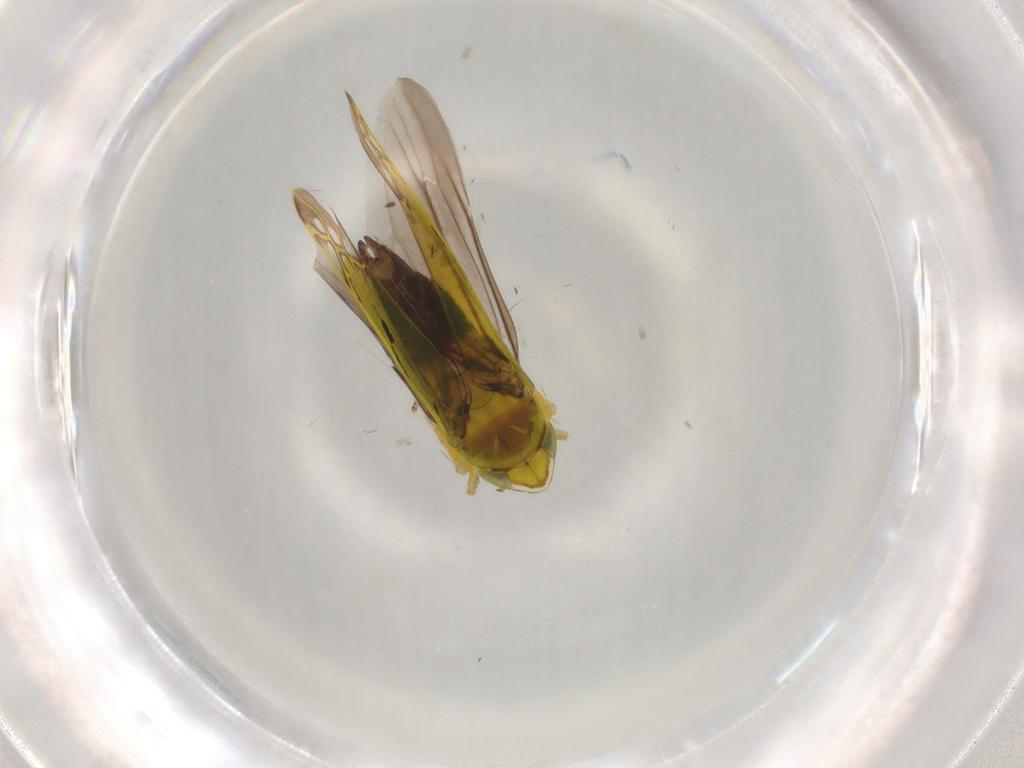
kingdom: Animalia
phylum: Arthropoda
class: Insecta
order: Hemiptera
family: Cicadellidae
